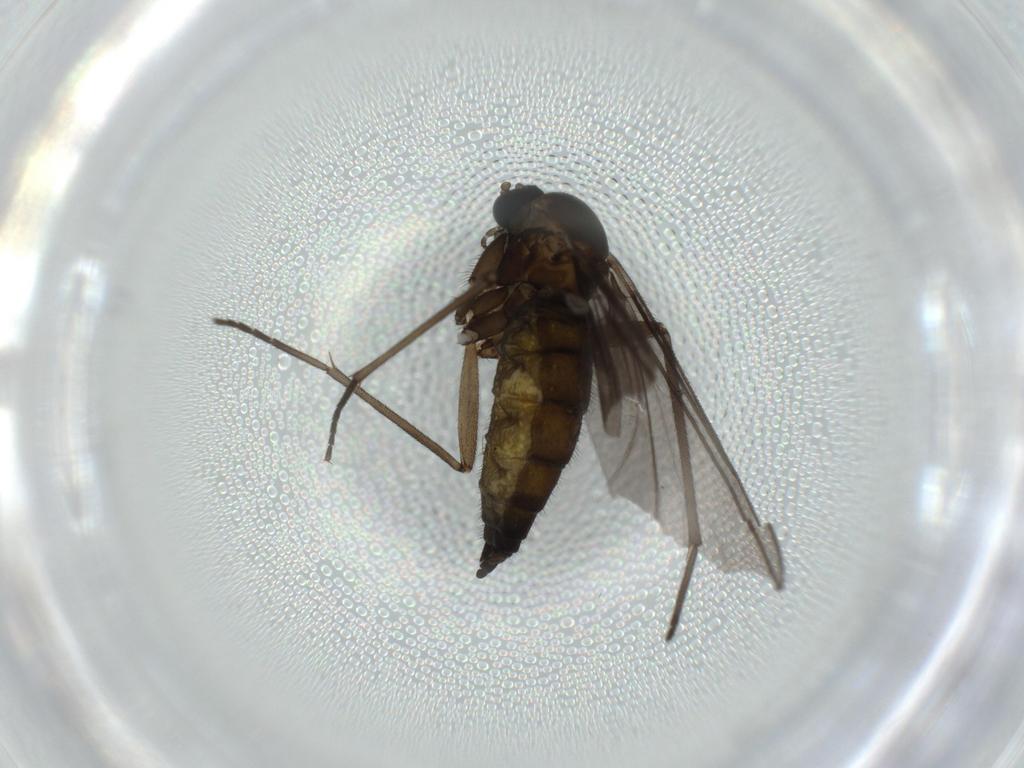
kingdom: Animalia
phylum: Arthropoda
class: Insecta
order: Diptera
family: Sciaridae
